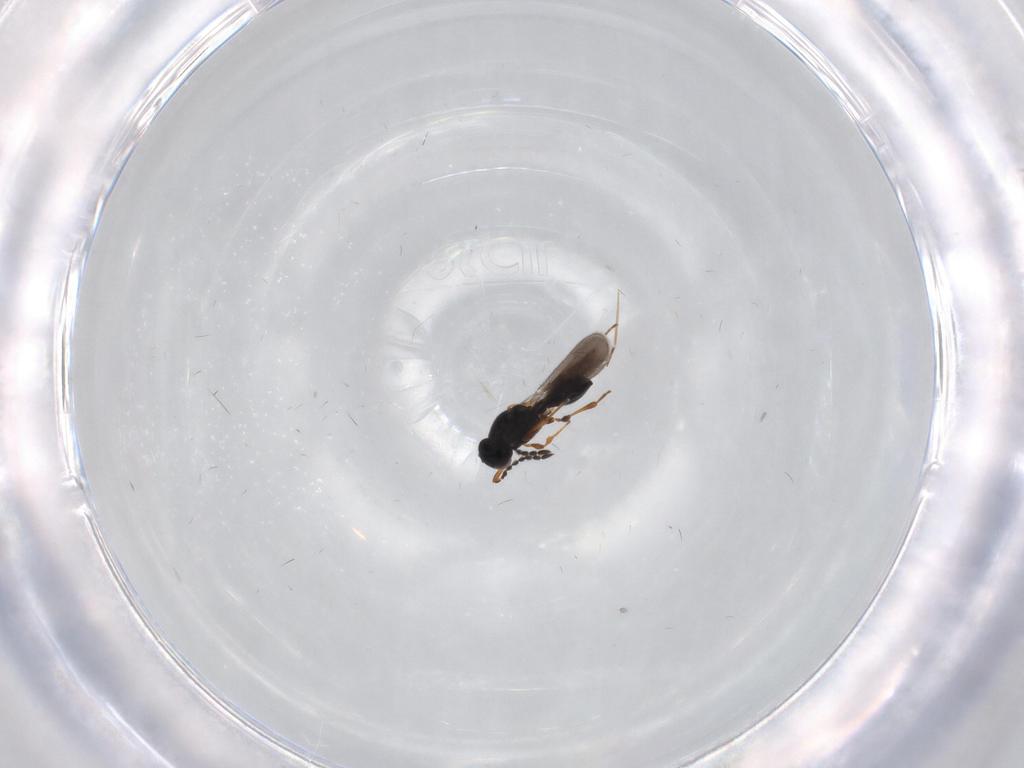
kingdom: Animalia
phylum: Arthropoda
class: Insecta
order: Hymenoptera
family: Platygastridae
